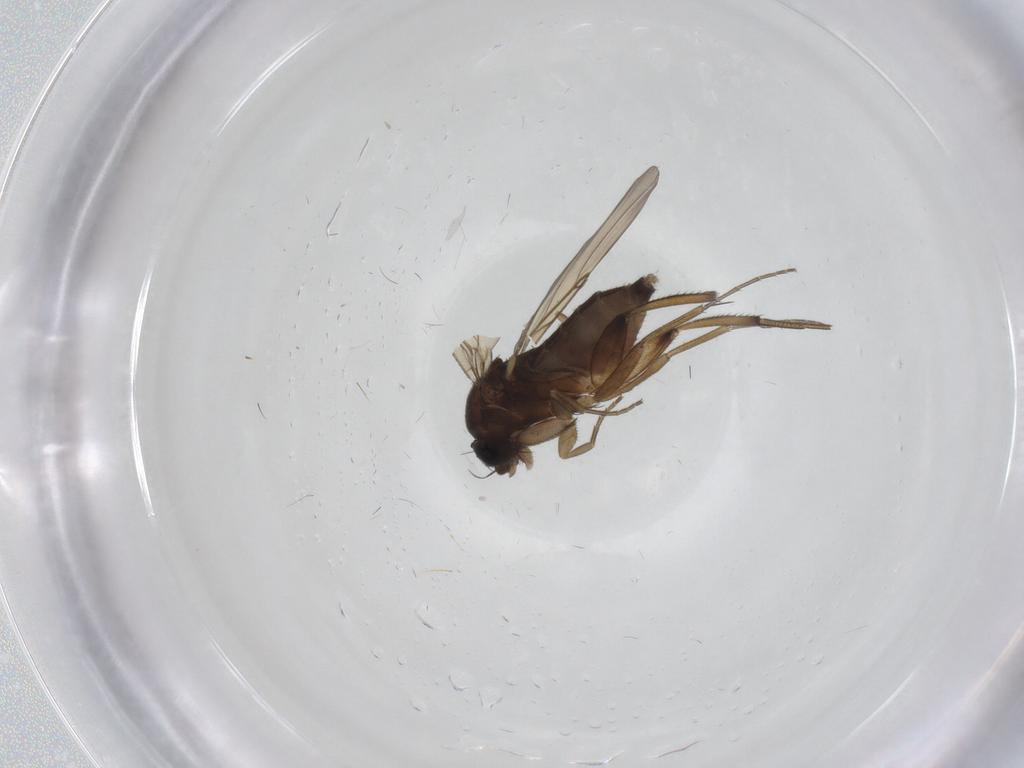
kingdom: Animalia
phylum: Arthropoda
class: Insecta
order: Diptera
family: Phoridae
